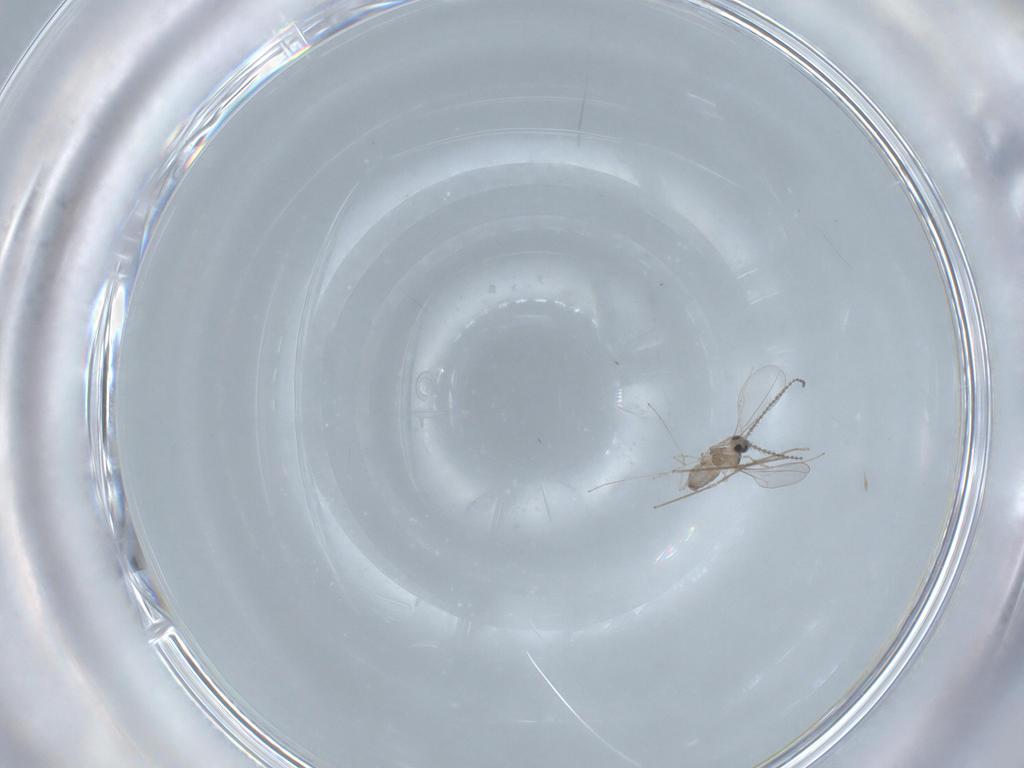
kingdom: Animalia
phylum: Arthropoda
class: Insecta
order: Diptera
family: Cecidomyiidae
